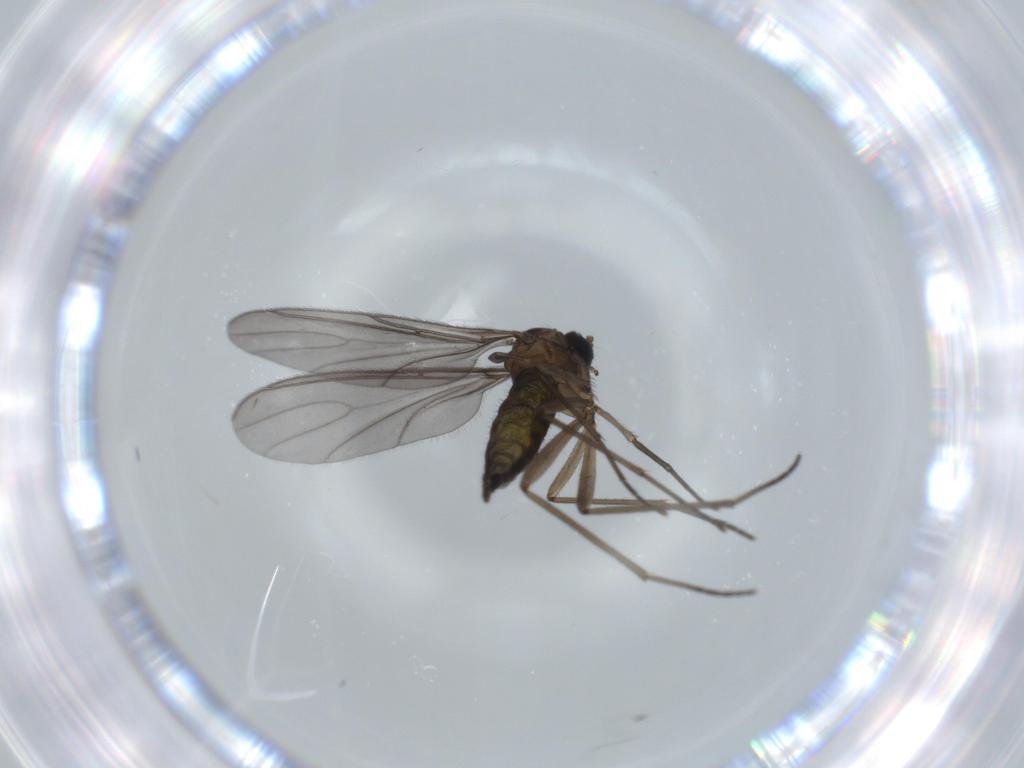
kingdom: Animalia
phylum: Arthropoda
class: Insecta
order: Diptera
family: Sciaridae
